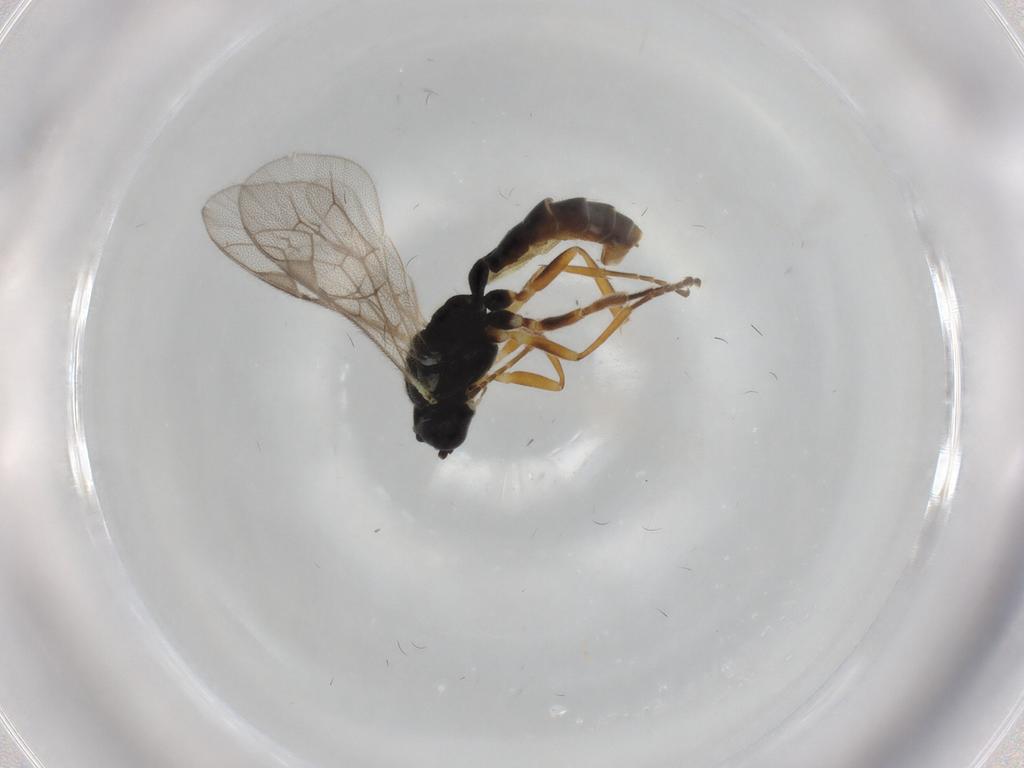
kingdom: Animalia
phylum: Arthropoda
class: Insecta
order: Hymenoptera
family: Ichneumonidae
